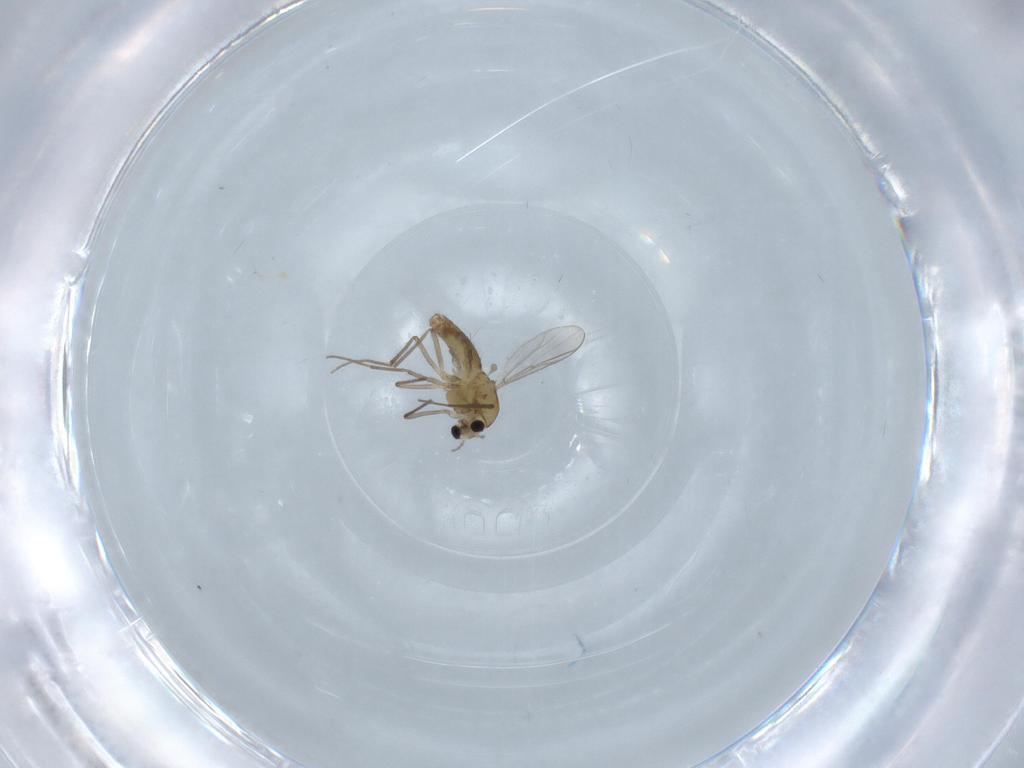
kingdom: Animalia
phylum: Arthropoda
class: Insecta
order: Diptera
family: Chironomidae
